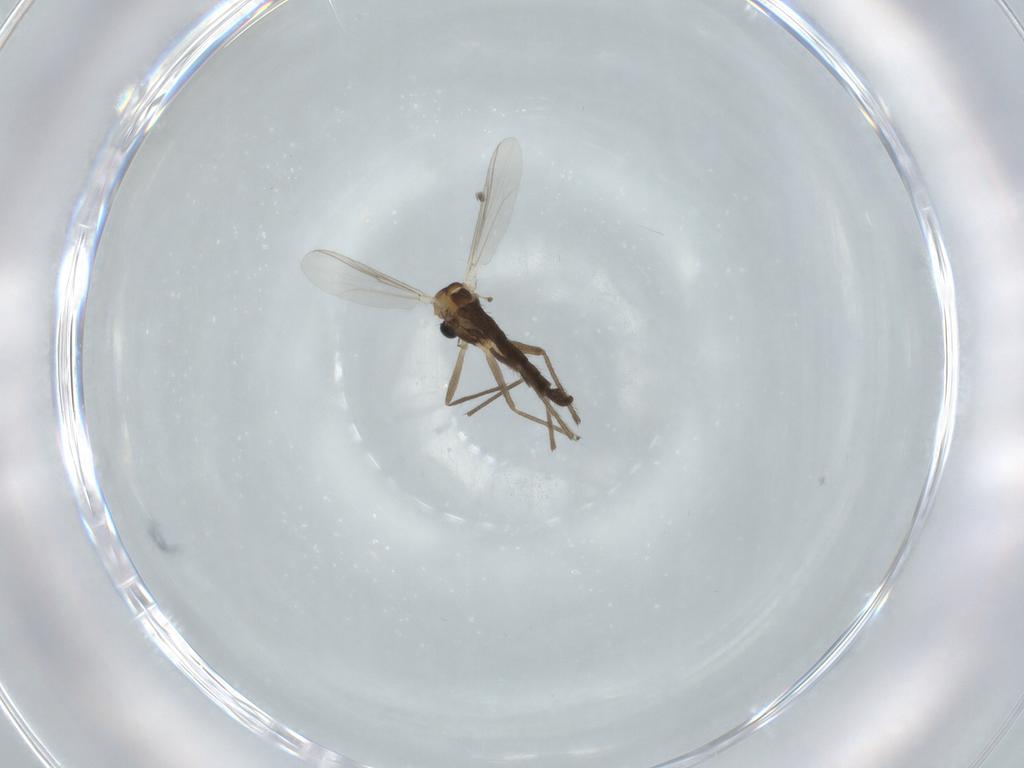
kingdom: Animalia
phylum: Arthropoda
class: Insecta
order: Diptera
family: Chironomidae
